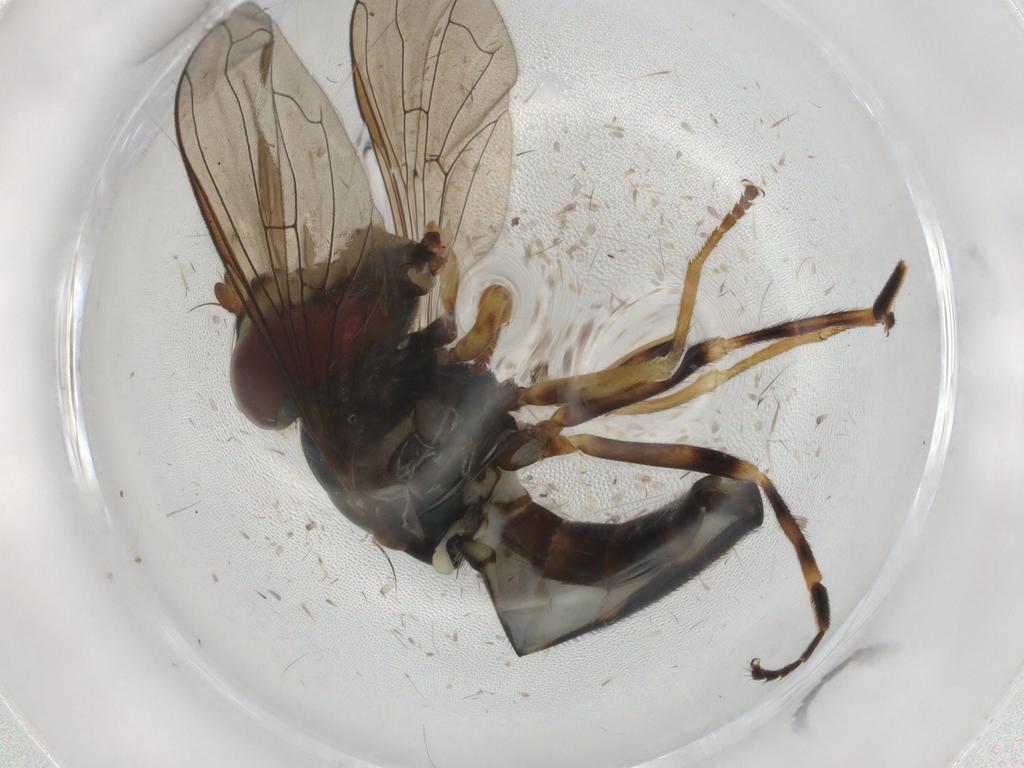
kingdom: Animalia
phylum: Arthropoda
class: Insecta
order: Diptera
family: Syrphidae
